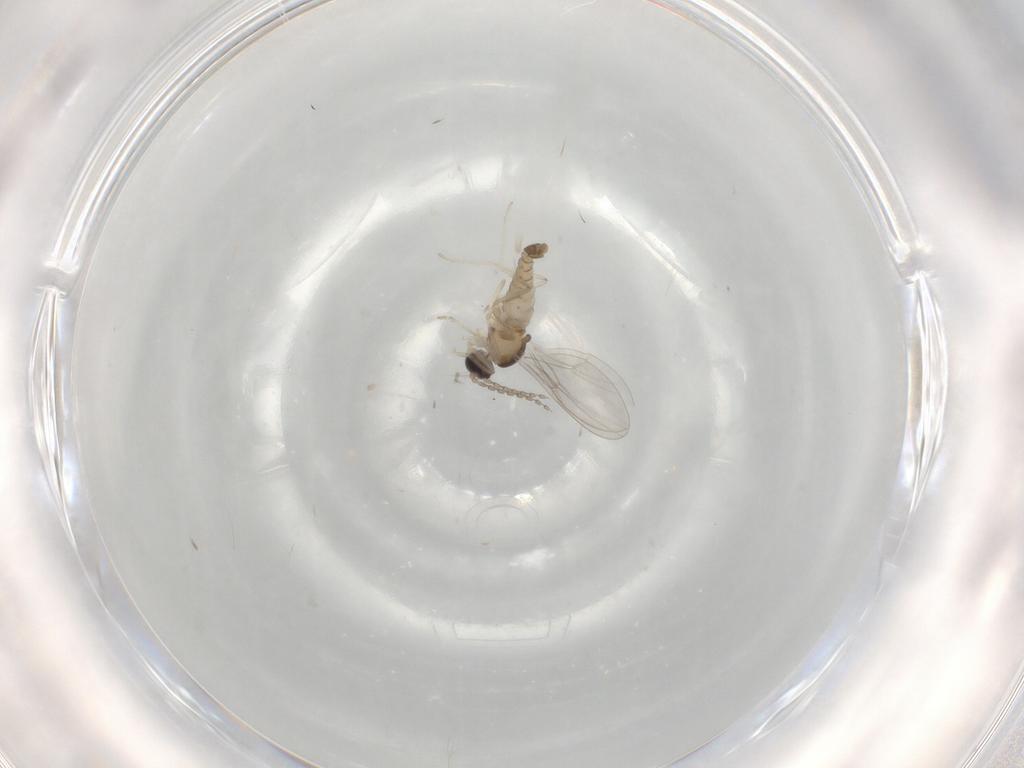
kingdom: Animalia
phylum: Arthropoda
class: Insecta
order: Diptera
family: Cecidomyiidae
